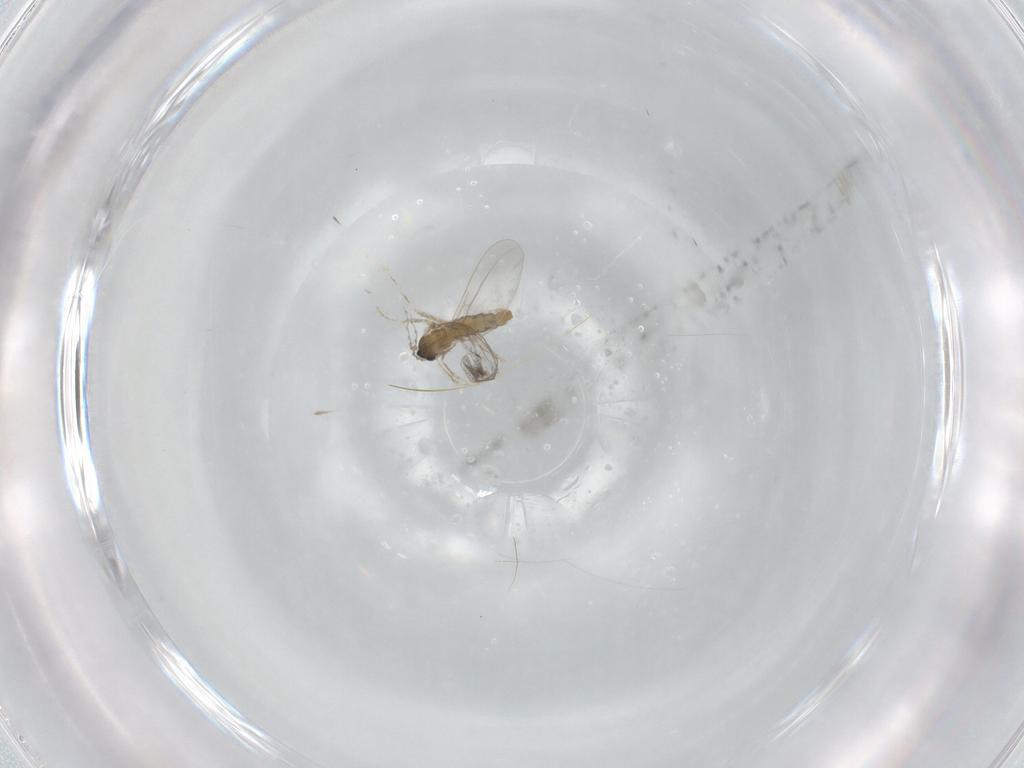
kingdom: Animalia
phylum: Arthropoda
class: Insecta
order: Diptera
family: Cecidomyiidae
